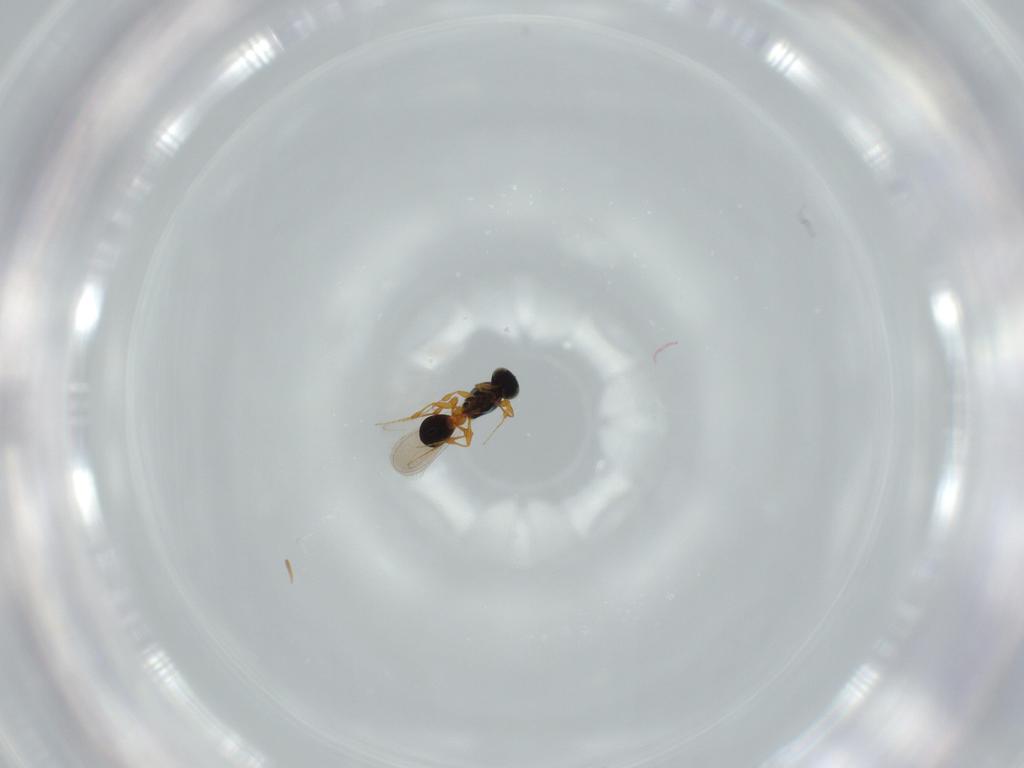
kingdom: Animalia
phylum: Arthropoda
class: Insecta
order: Hymenoptera
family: Platygastridae
